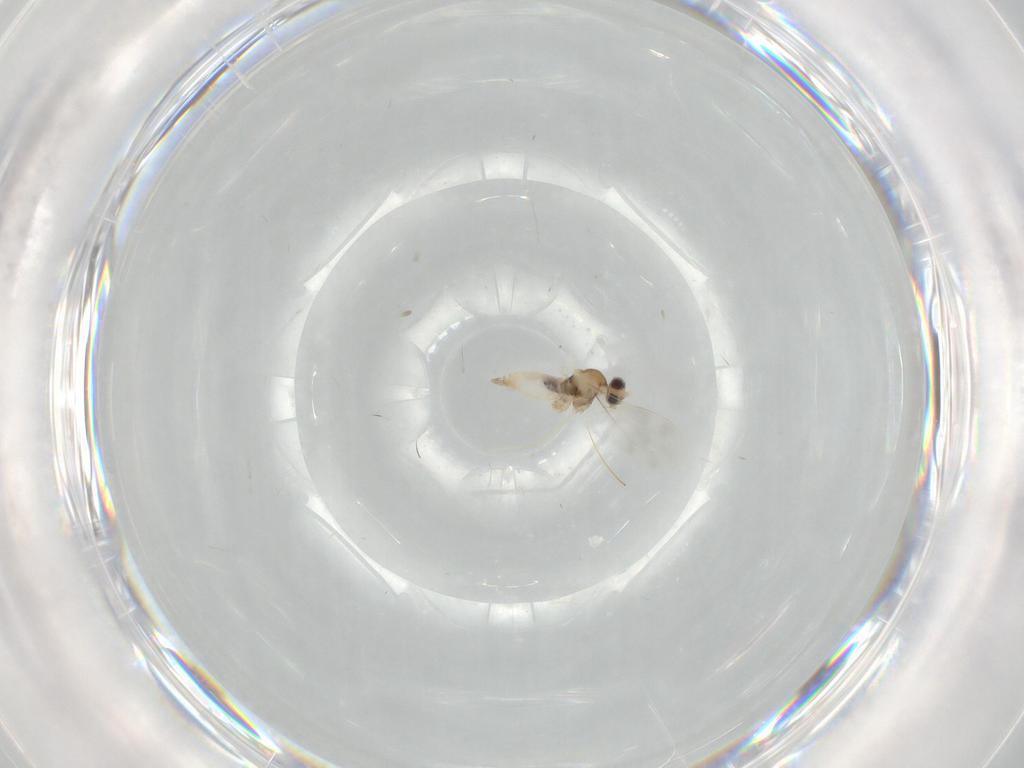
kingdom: Animalia
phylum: Arthropoda
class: Insecta
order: Diptera
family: Cecidomyiidae
